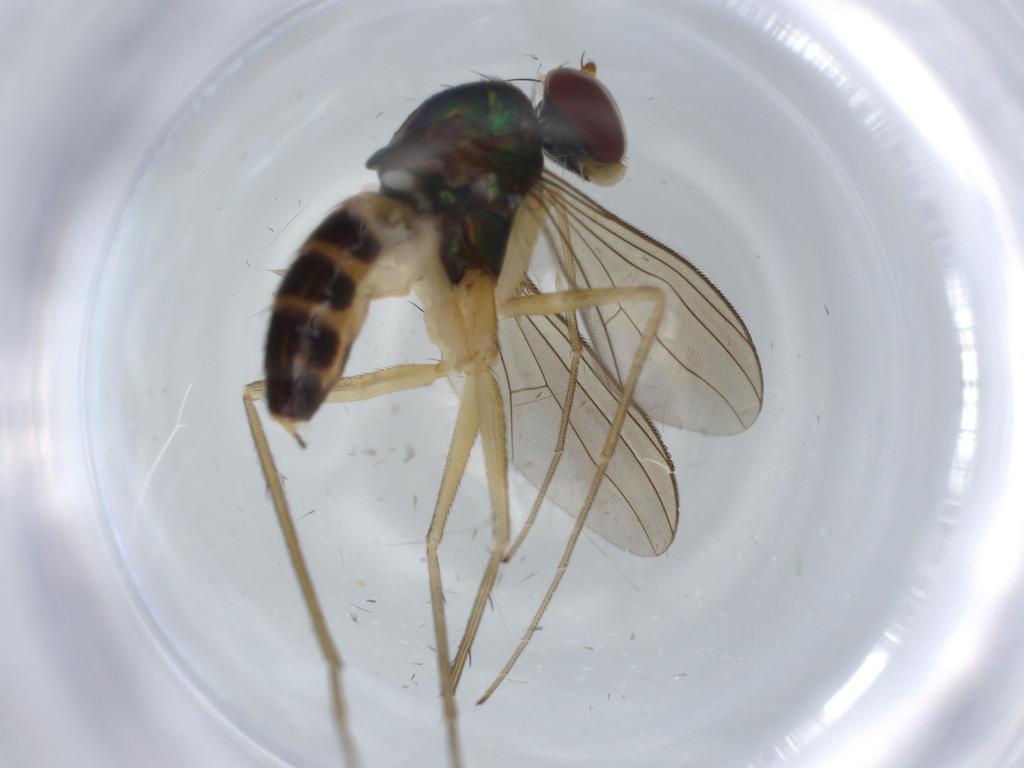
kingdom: Animalia
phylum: Arthropoda
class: Insecta
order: Diptera
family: Dolichopodidae
